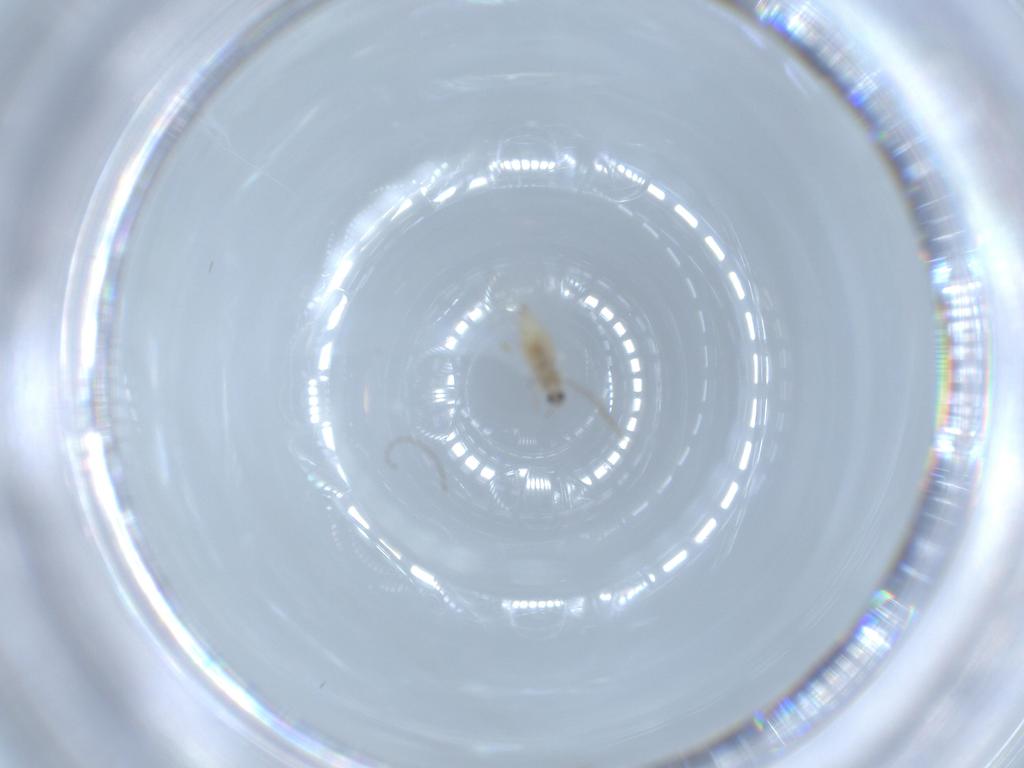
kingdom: Animalia
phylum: Arthropoda
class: Insecta
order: Diptera
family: Cecidomyiidae
